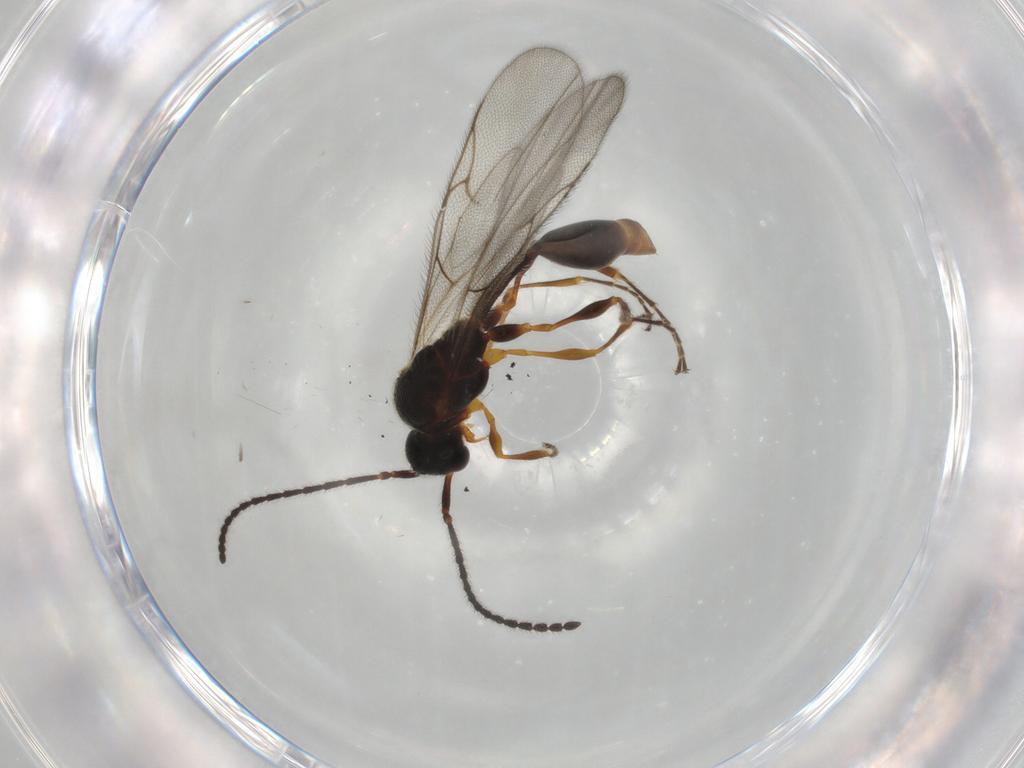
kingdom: Animalia
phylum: Arthropoda
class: Insecta
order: Hymenoptera
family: Diapriidae
